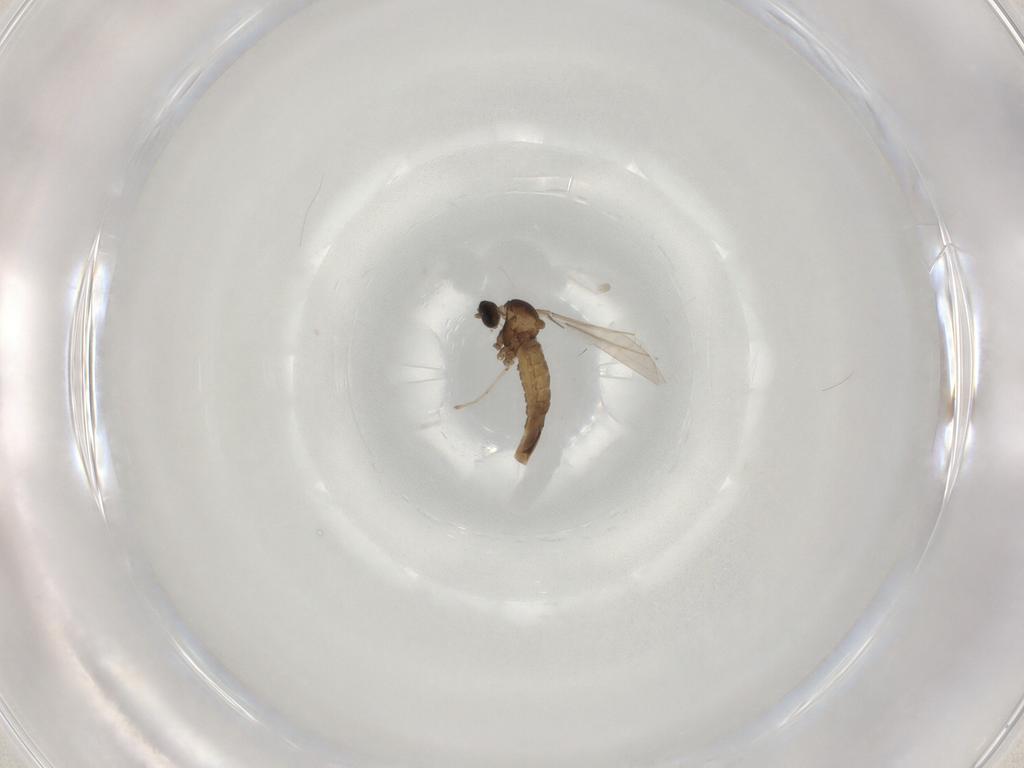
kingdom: Animalia
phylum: Arthropoda
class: Insecta
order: Diptera
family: Cecidomyiidae
